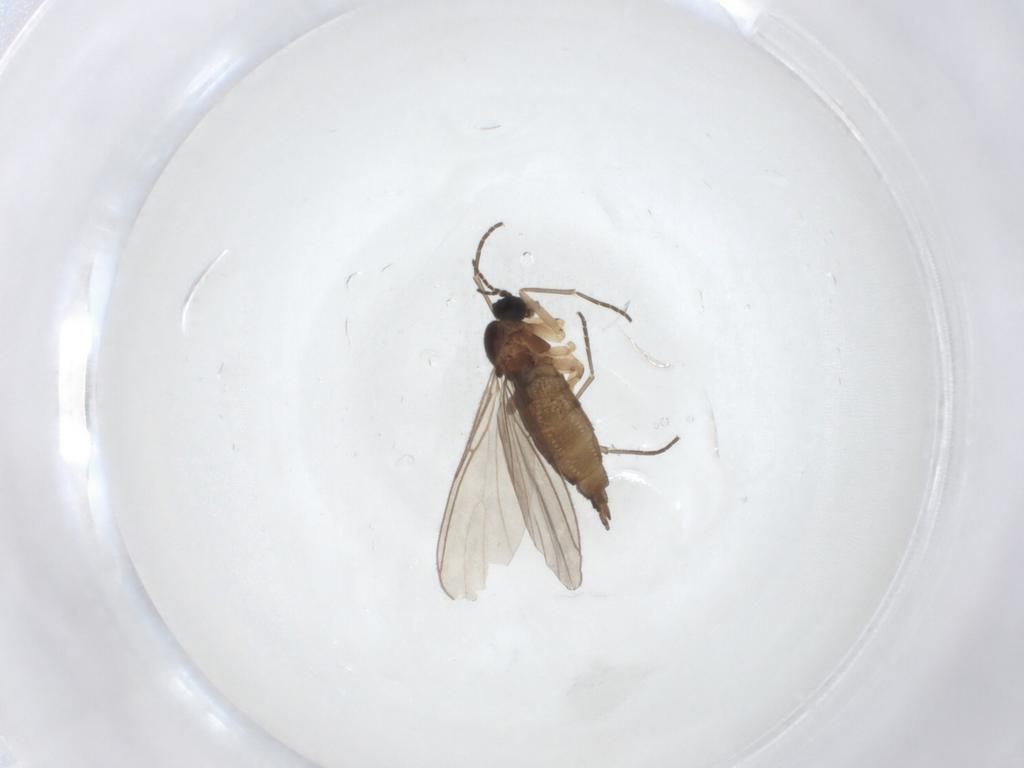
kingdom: Animalia
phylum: Arthropoda
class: Insecta
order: Diptera
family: Sciaridae
